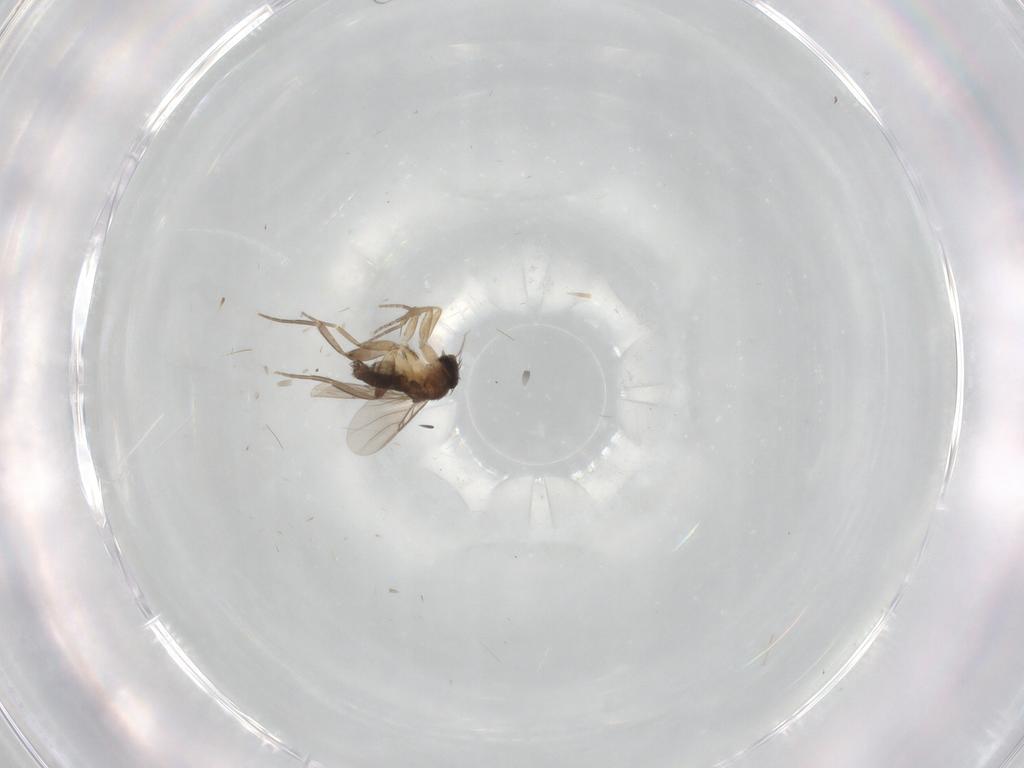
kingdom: Animalia
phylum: Arthropoda
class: Insecta
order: Diptera
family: Phoridae
